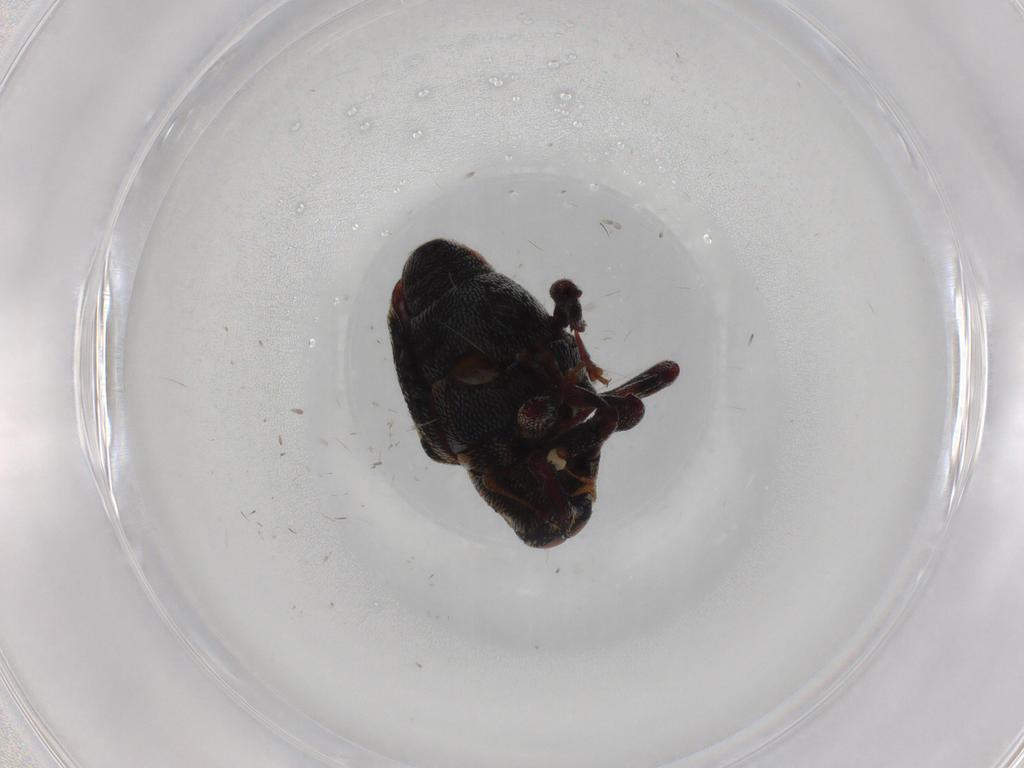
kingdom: Animalia
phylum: Arthropoda
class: Insecta
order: Coleoptera
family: Curculionidae
